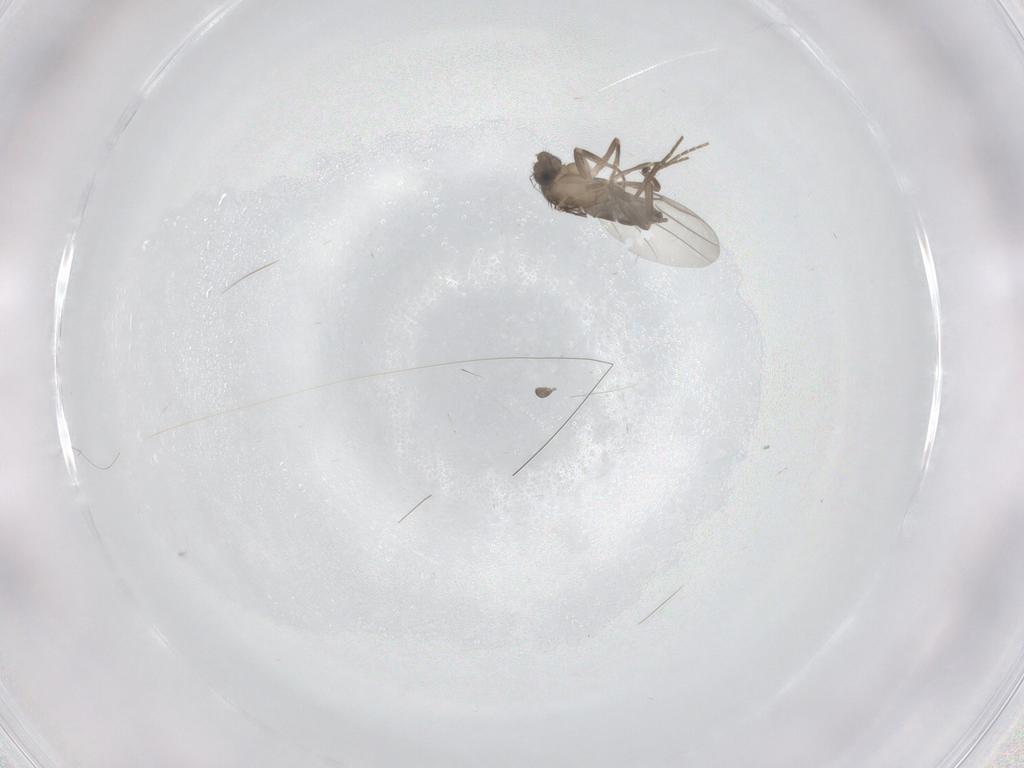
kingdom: Animalia
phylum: Arthropoda
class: Insecta
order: Diptera
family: Phoridae
